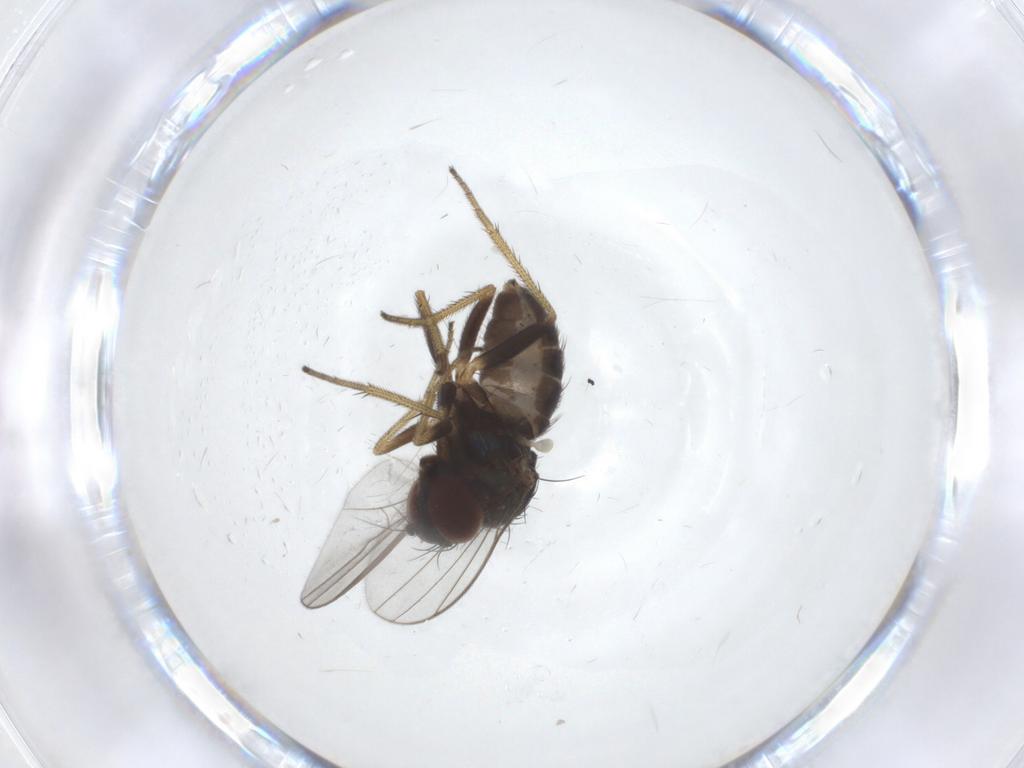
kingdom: Animalia
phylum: Arthropoda
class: Insecta
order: Diptera
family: Dolichopodidae
